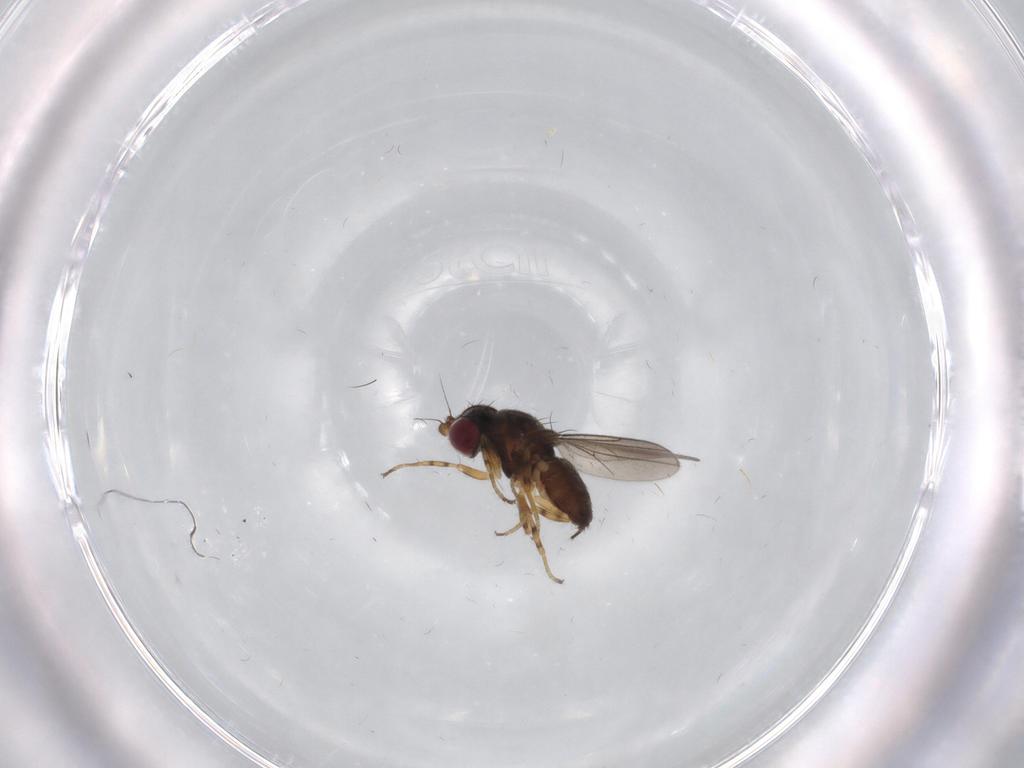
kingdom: Animalia
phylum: Arthropoda
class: Insecta
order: Diptera
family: Chloropidae
